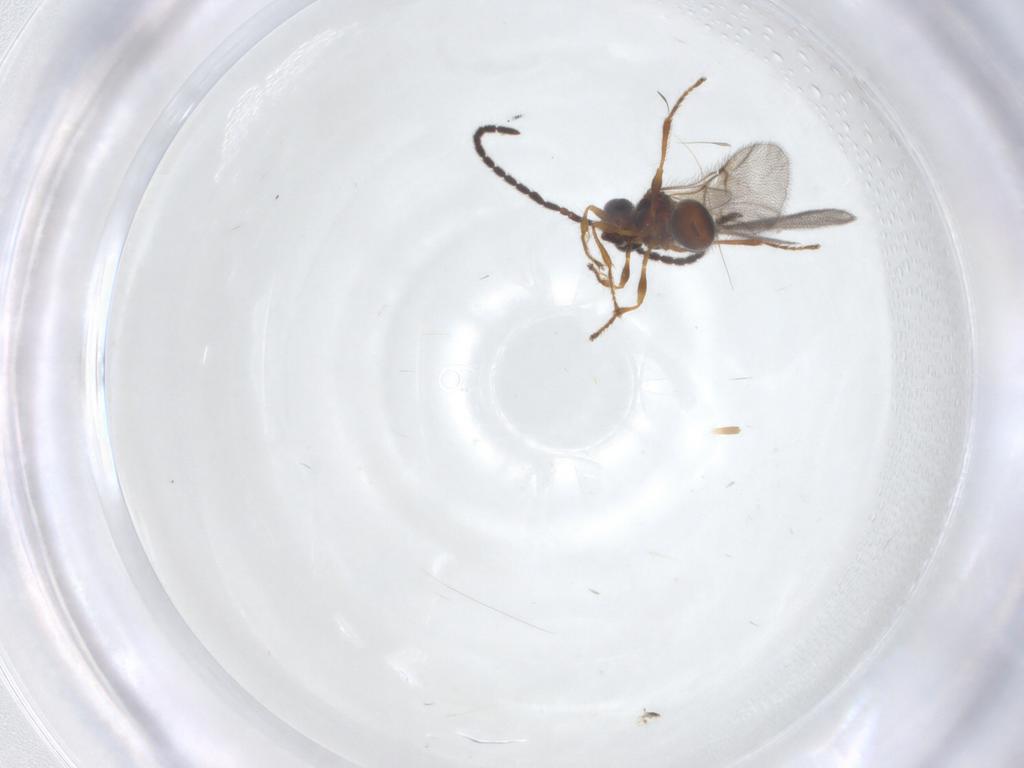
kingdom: Animalia
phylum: Arthropoda
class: Insecta
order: Hymenoptera
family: Diapriidae
